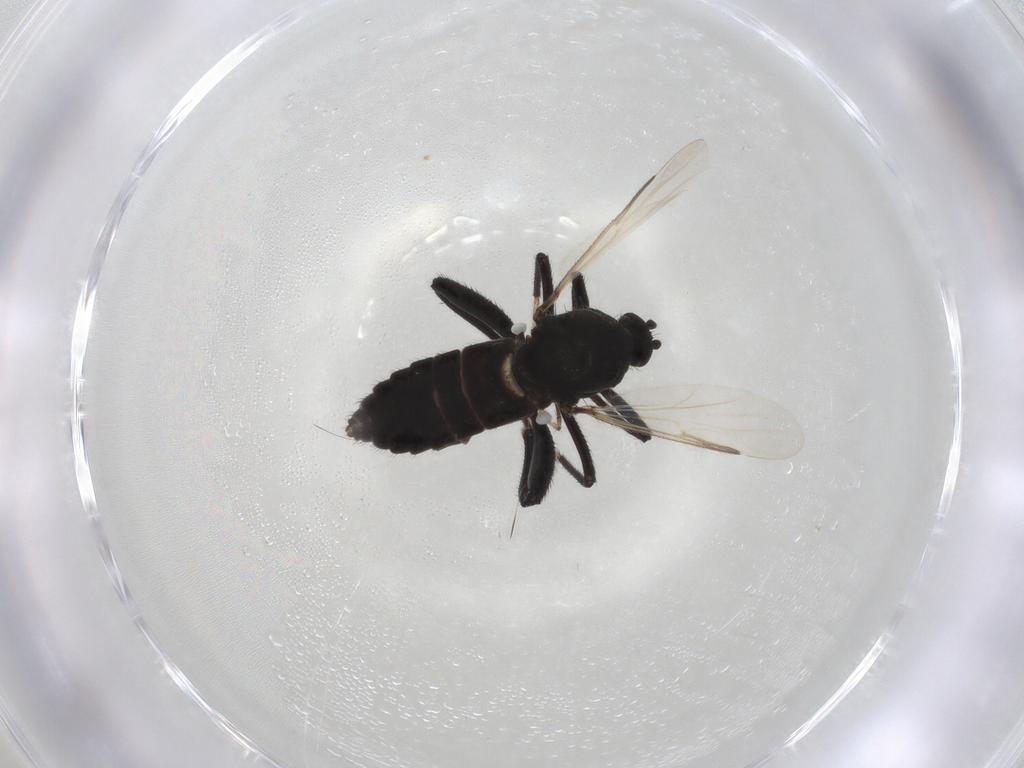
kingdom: Animalia
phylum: Arthropoda
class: Insecta
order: Diptera
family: Ceratopogonidae
